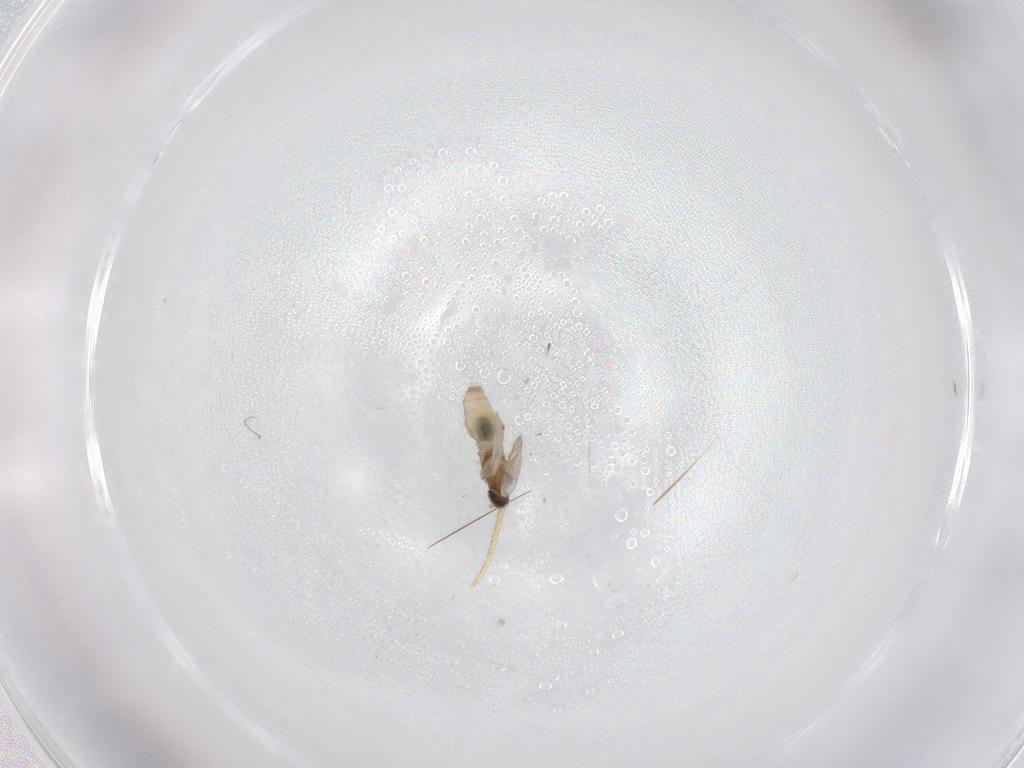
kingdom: Animalia
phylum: Arthropoda
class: Insecta
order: Diptera
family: Cecidomyiidae
